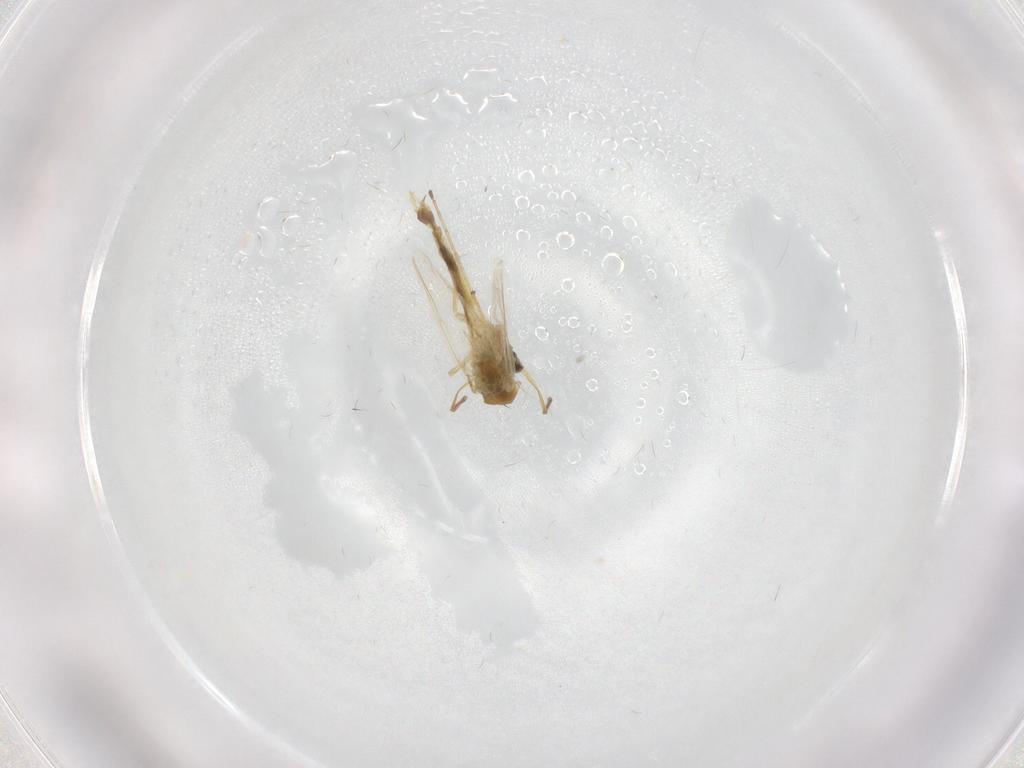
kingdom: Animalia
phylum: Arthropoda
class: Insecta
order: Diptera
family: Chironomidae
